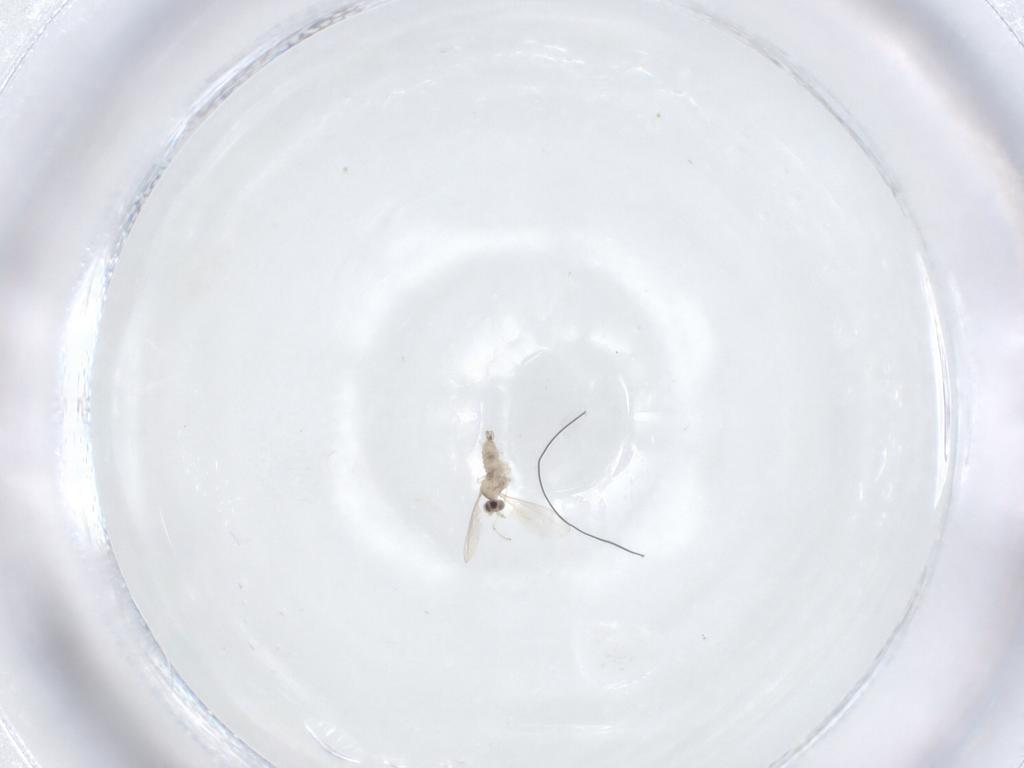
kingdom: Animalia
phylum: Arthropoda
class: Insecta
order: Diptera
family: Cecidomyiidae
